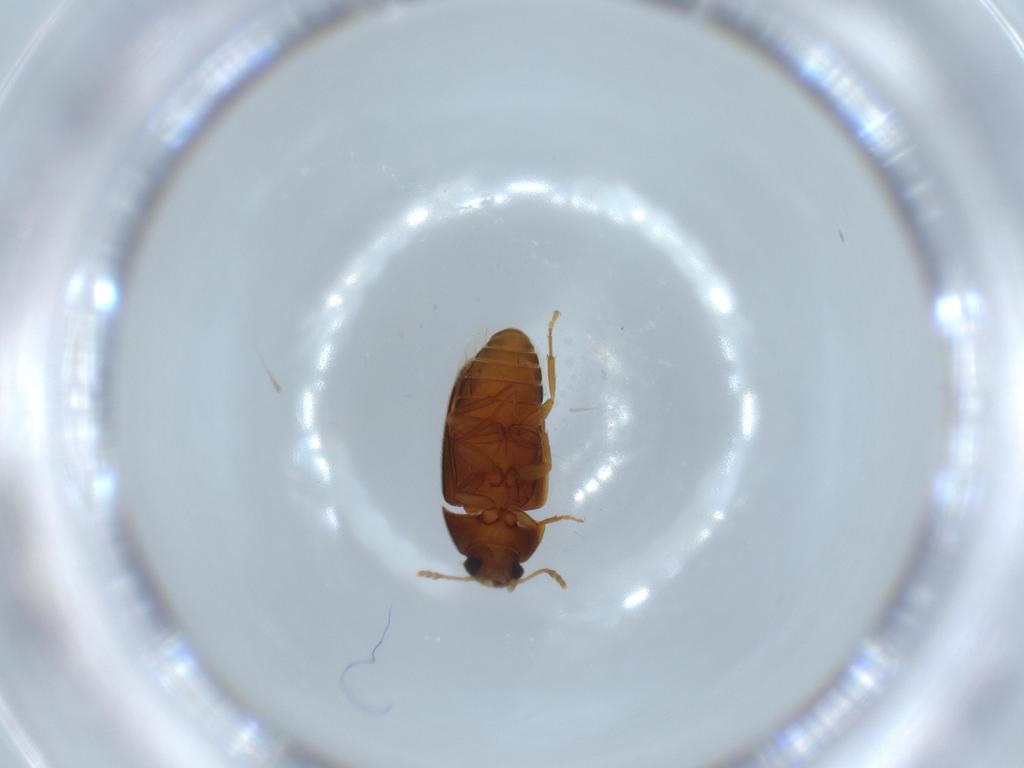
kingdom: Animalia
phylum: Arthropoda
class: Insecta
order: Coleoptera
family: Mycetophagidae
